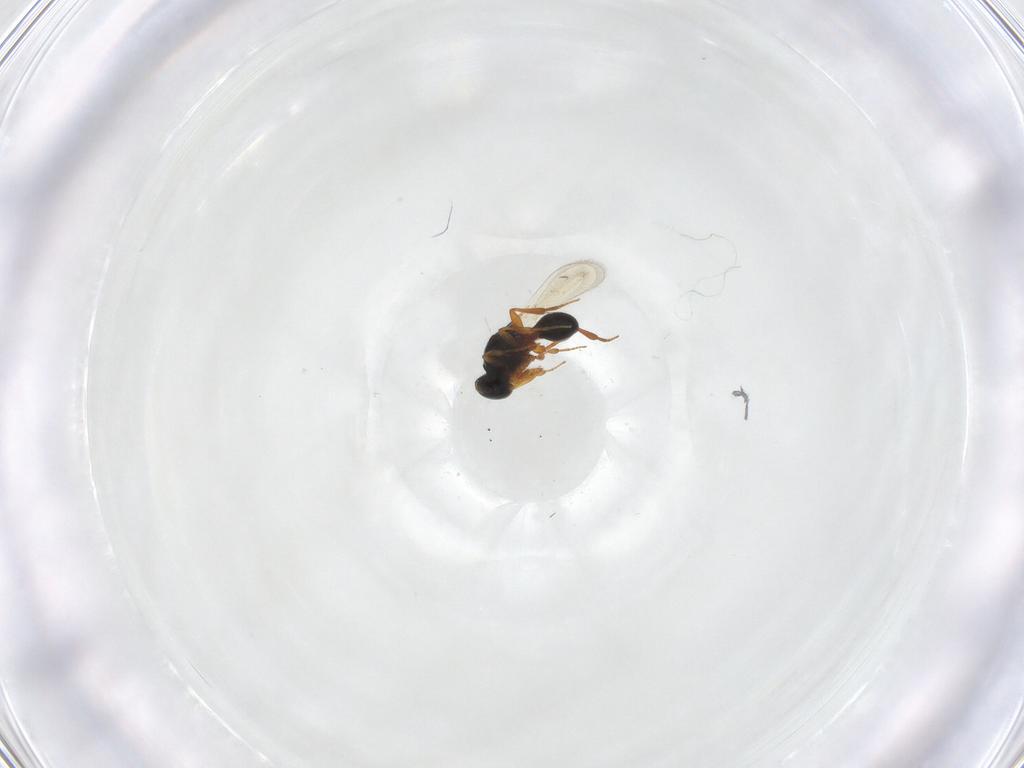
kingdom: Animalia
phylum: Arthropoda
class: Insecta
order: Hymenoptera
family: Platygastridae
